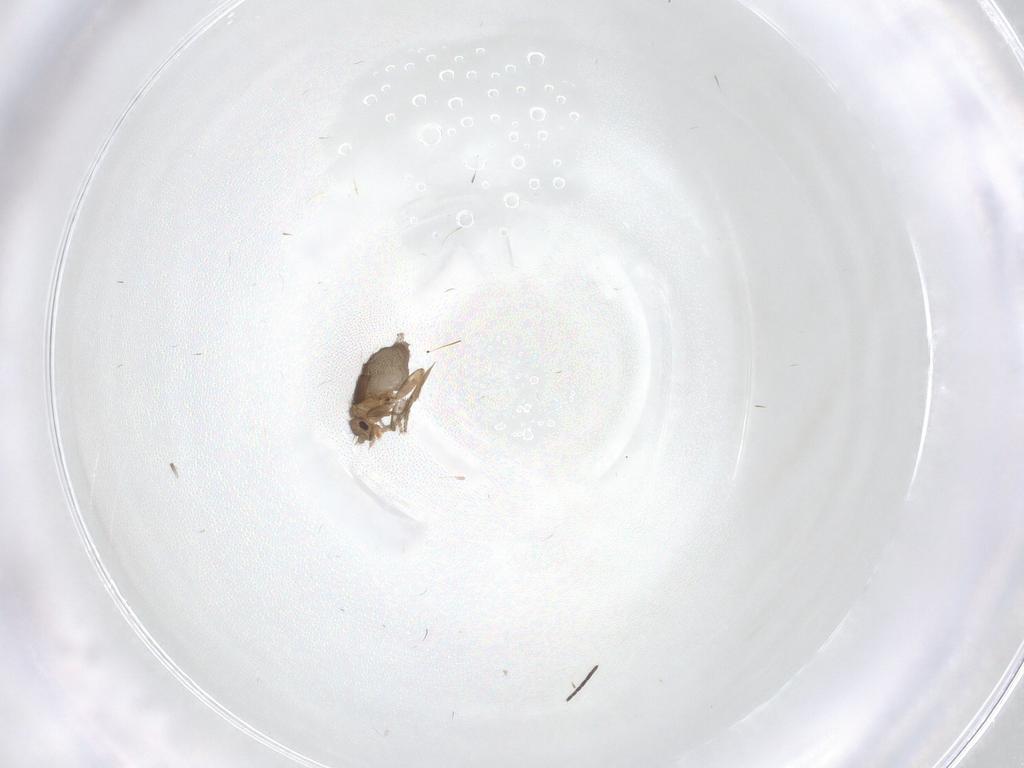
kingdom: Animalia
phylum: Arthropoda
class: Insecta
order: Diptera
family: Phoridae
